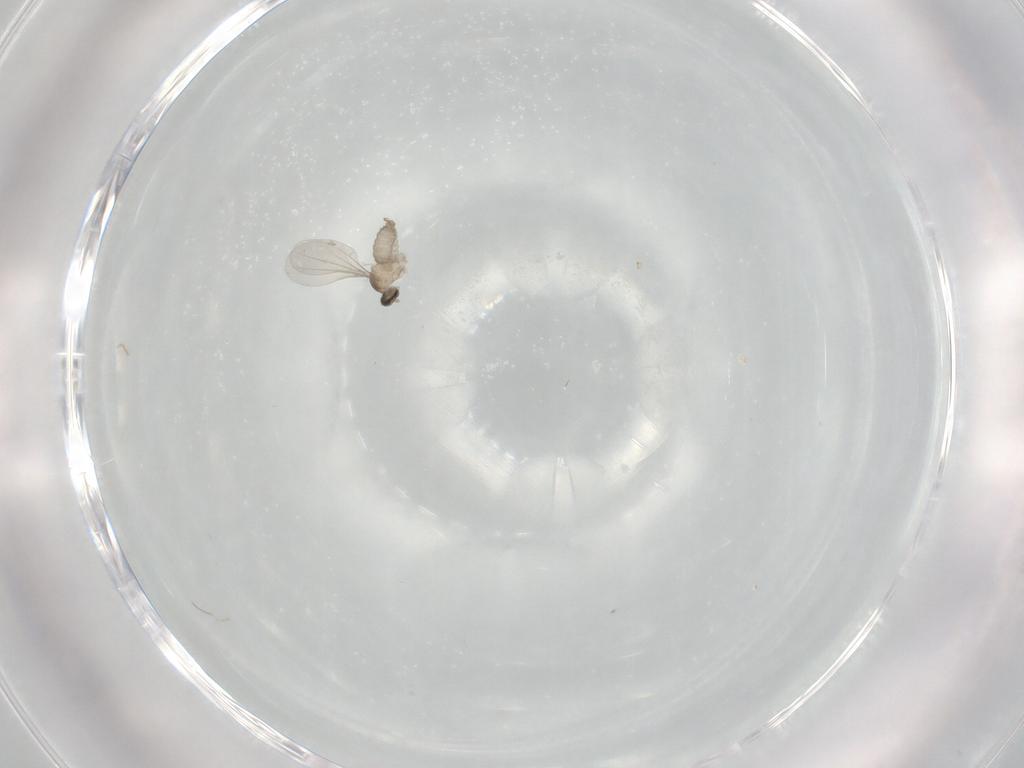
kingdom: Animalia
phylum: Arthropoda
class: Insecta
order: Diptera
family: Cecidomyiidae
